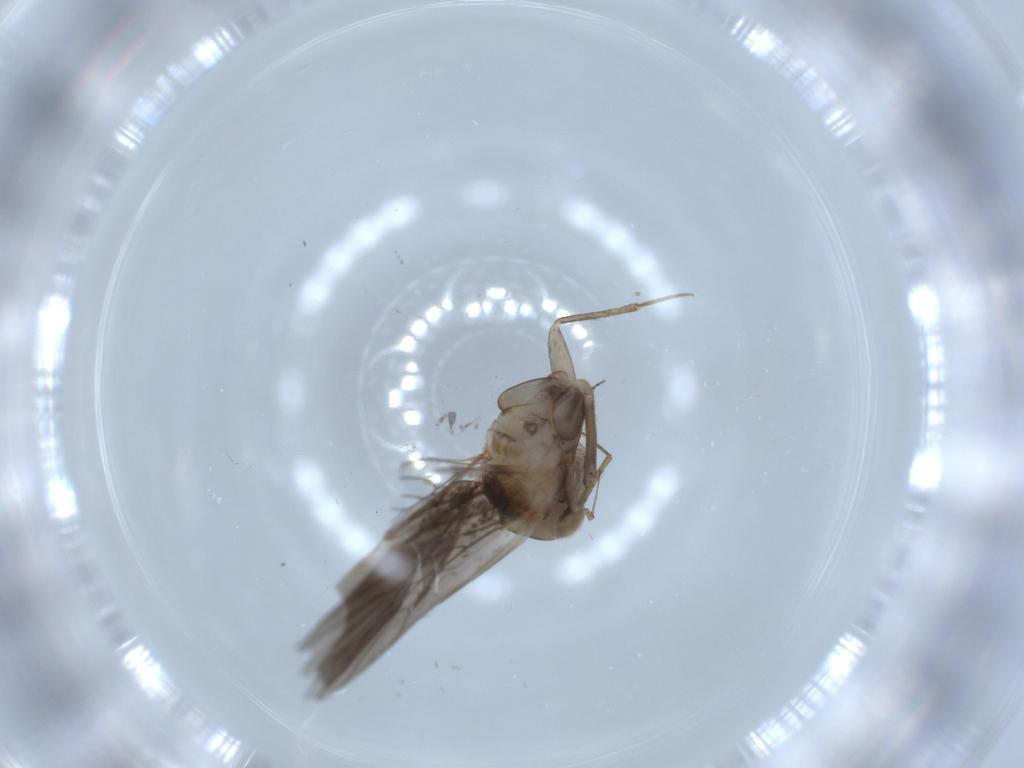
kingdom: Animalia
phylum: Arthropoda
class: Insecta
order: Psocodea
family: Lepidopsocidae
